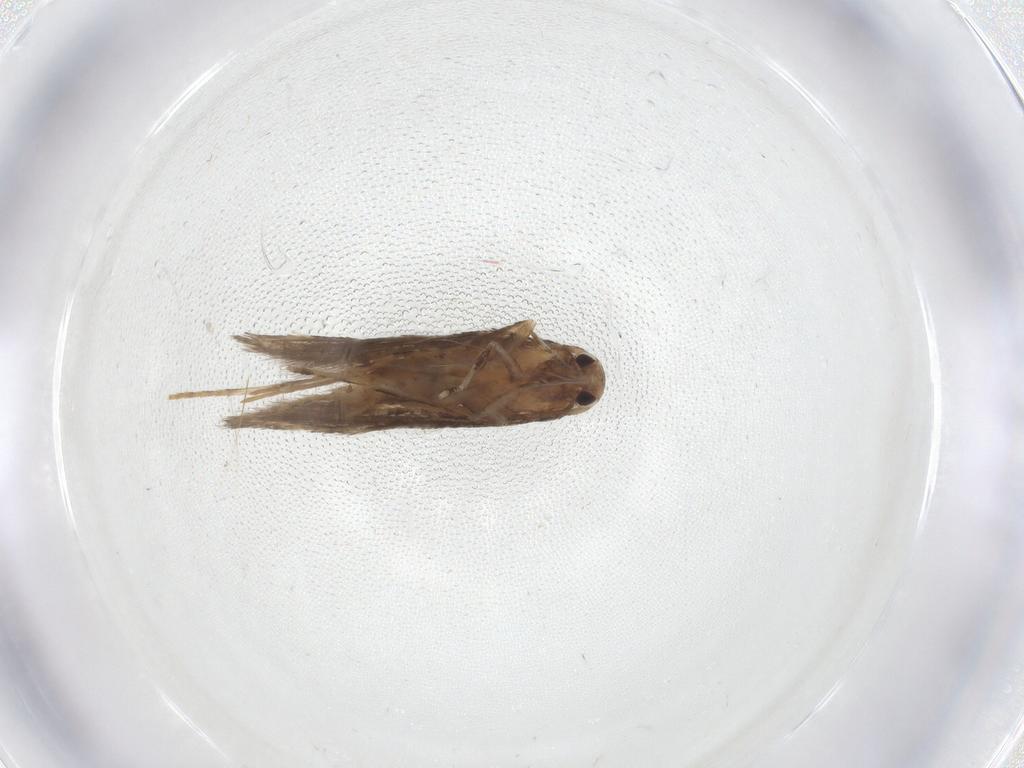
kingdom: Animalia
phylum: Arthropoda
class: Insecta
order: Lepidoptera
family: Elachistidae
